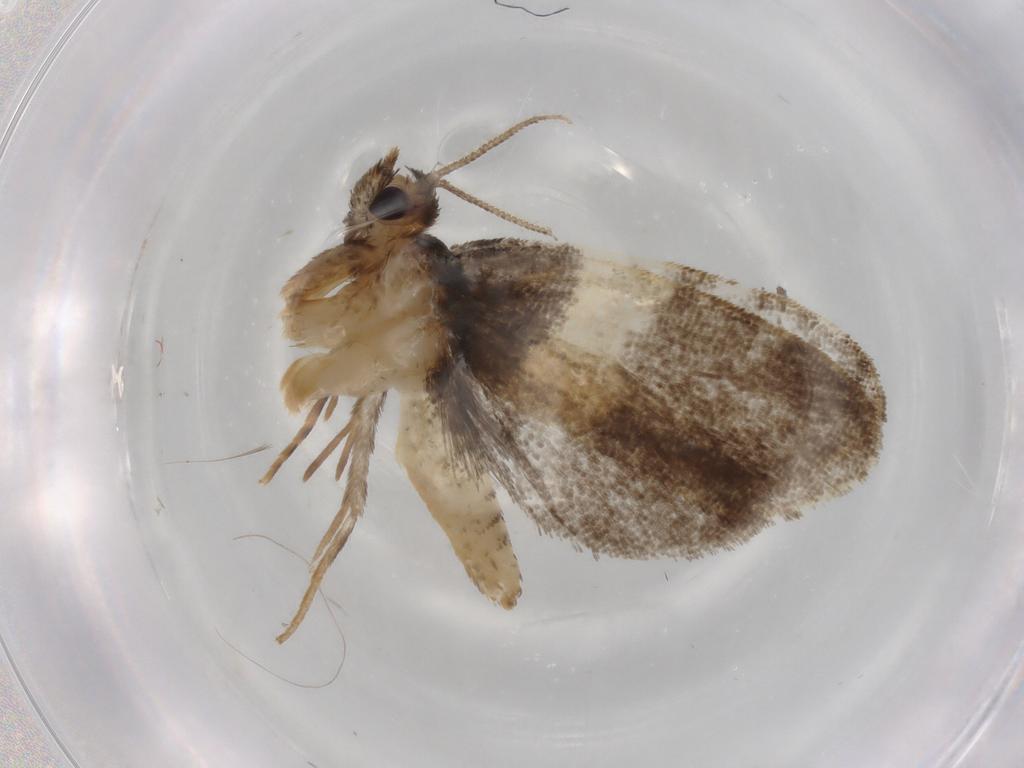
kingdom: Animalia
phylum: Arthropoda
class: Insecta
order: Lepidoptera
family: Psychidae
